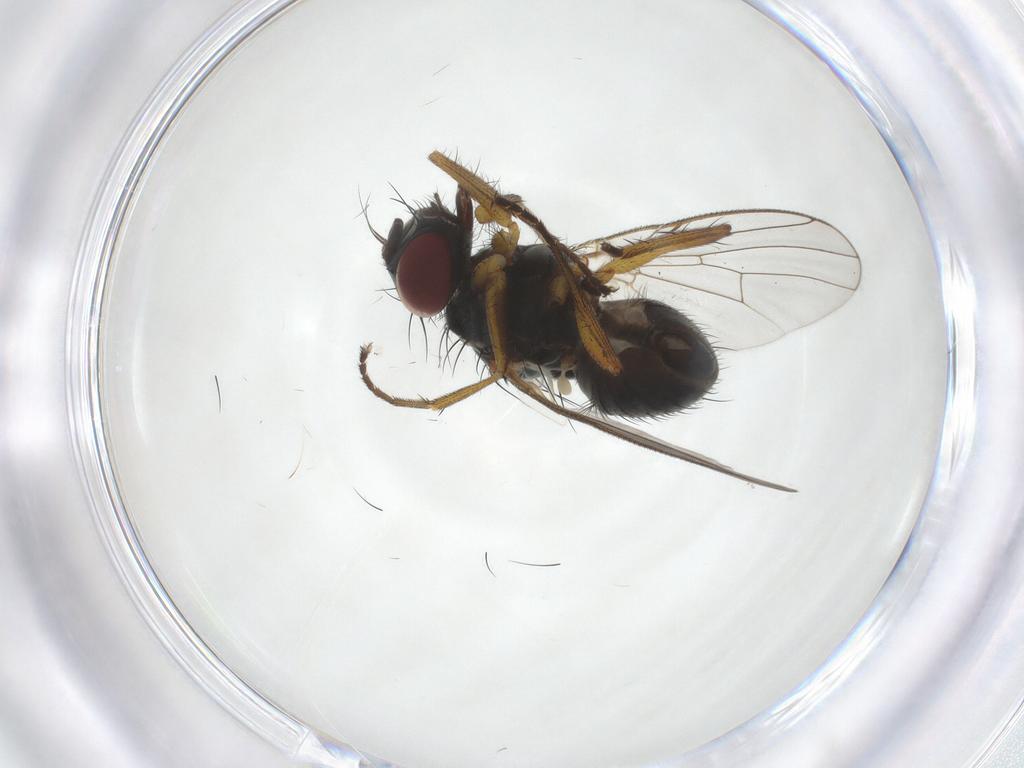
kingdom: Animalia
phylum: Arthropoda
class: Insecta
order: Diptera
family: Muscidae
